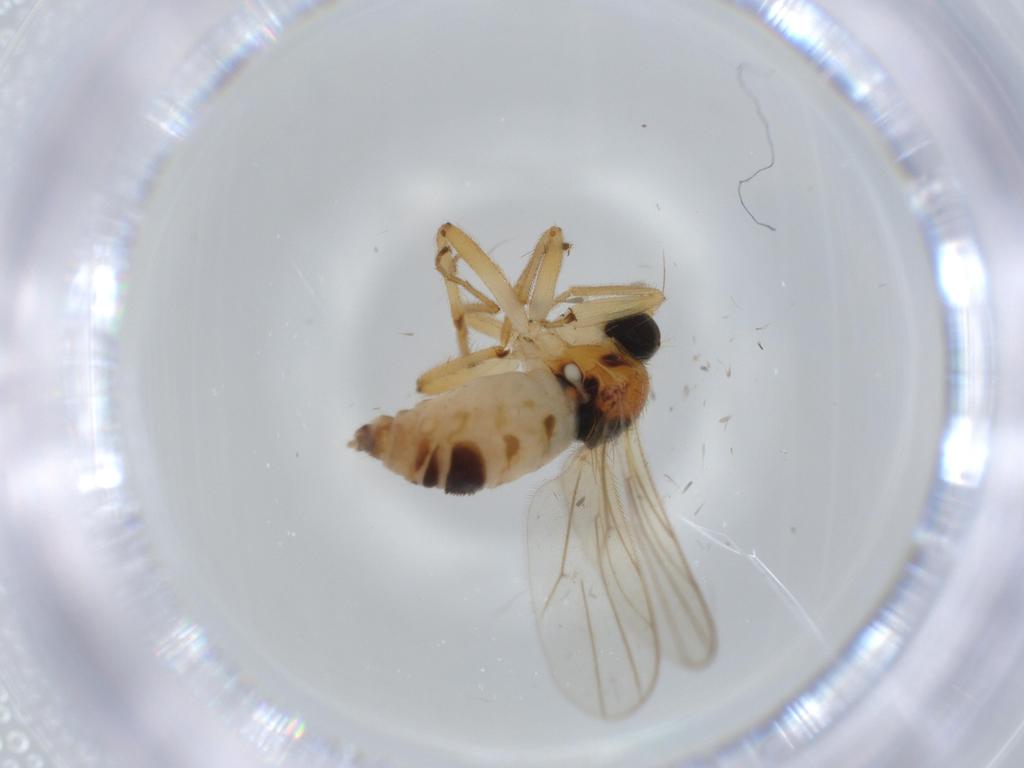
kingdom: Animalia
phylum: Arthropoda
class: Insecta
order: Diptera
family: Hybotidae
